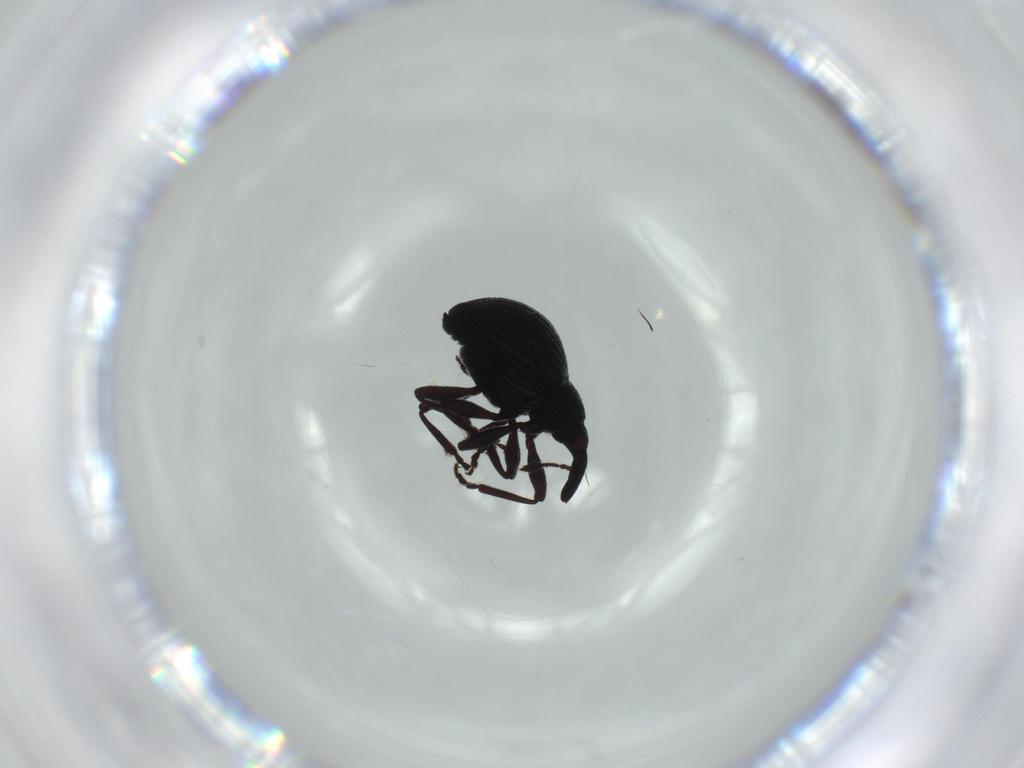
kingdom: Animalia
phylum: Arthropoda
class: Insecta
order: Coleoptera
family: Brentidae
